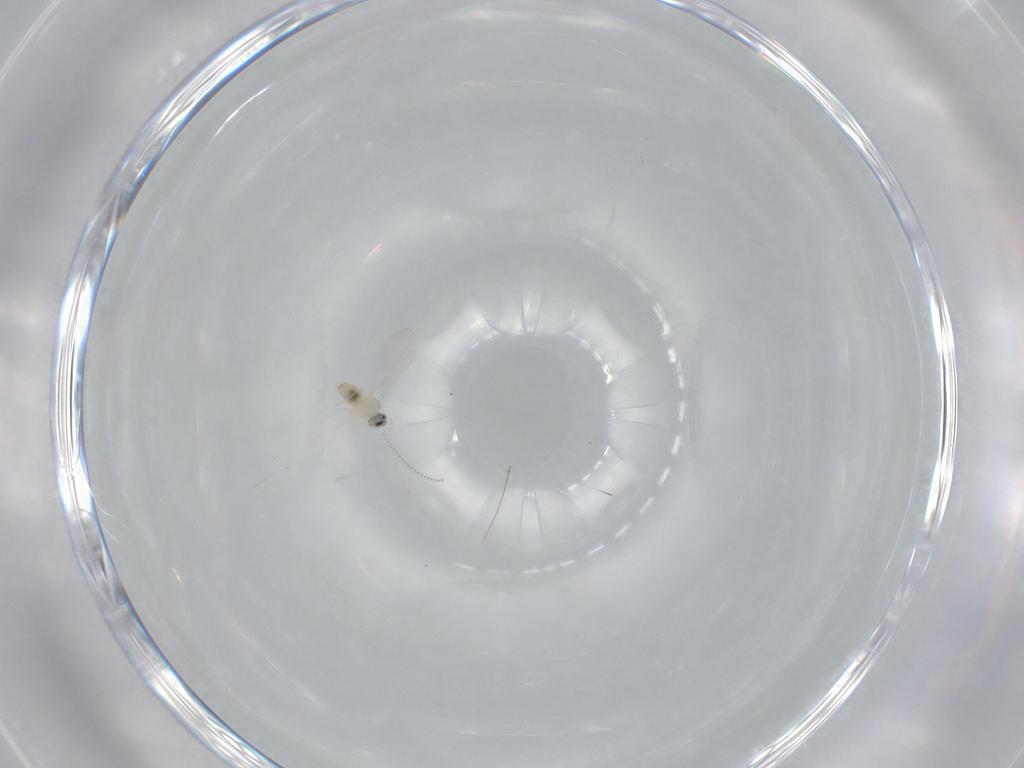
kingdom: Animalia
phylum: Arthropoda
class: Insecta
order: Diptera
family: Cecidomyiidae
